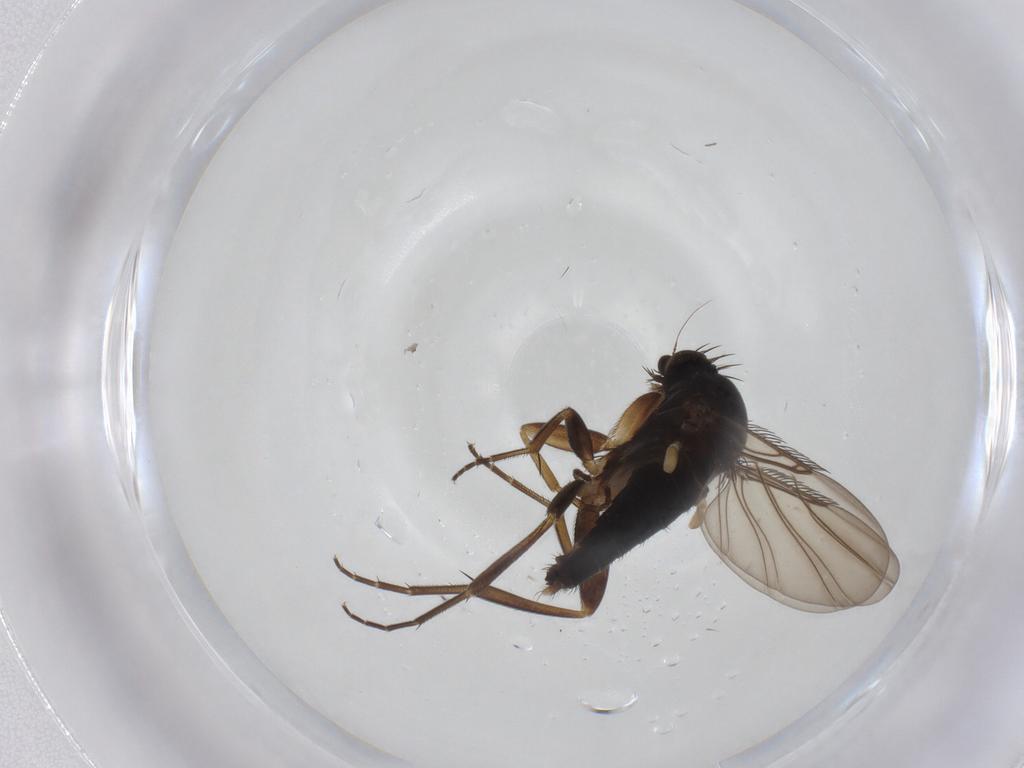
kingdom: Animalia
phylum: Arthropoda
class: Insecta
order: Diptera
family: Phoridae
